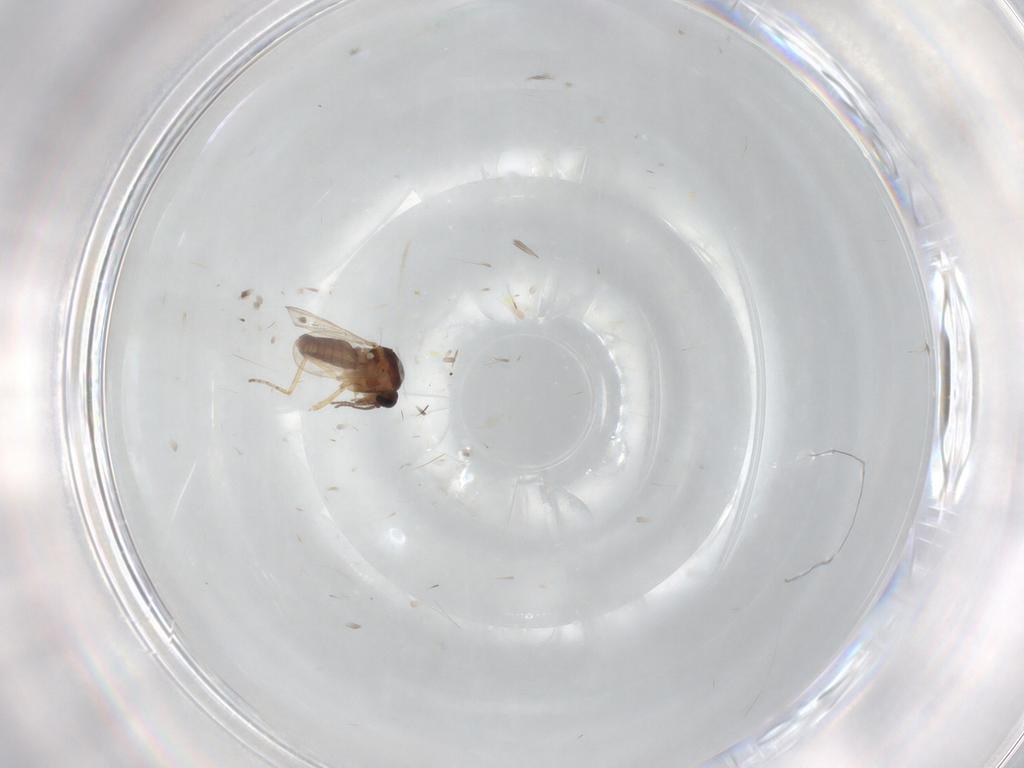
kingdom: Animalia
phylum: Arthropoda
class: Insecta
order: Diptera
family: Ceratopogonidae
